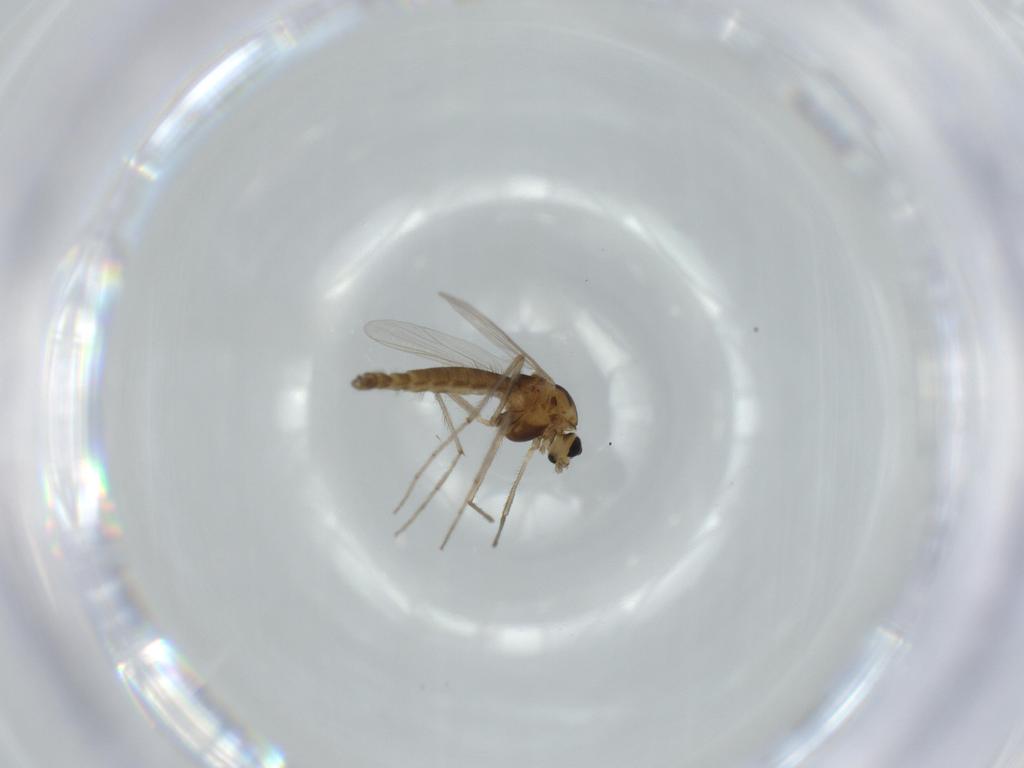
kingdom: Animalia
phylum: Arthropoda
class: Insecta
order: Diptera
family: Chironomidae
